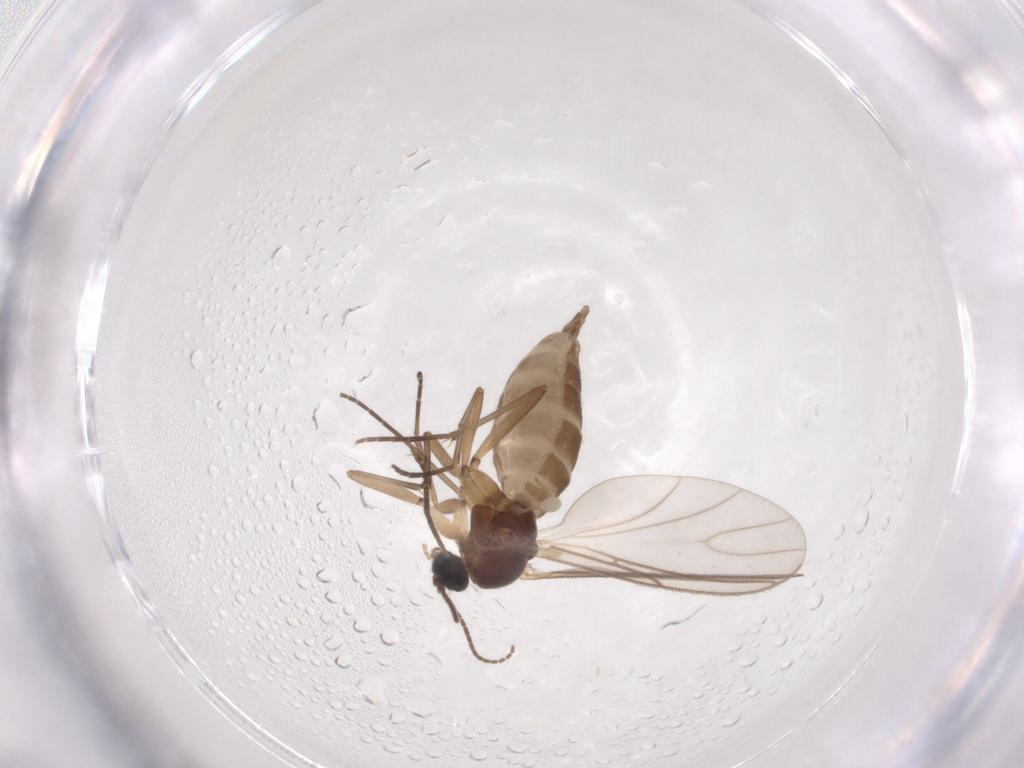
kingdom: Animalia
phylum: Arthropoda
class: Insecta
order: Diptera
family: Sciaridae
